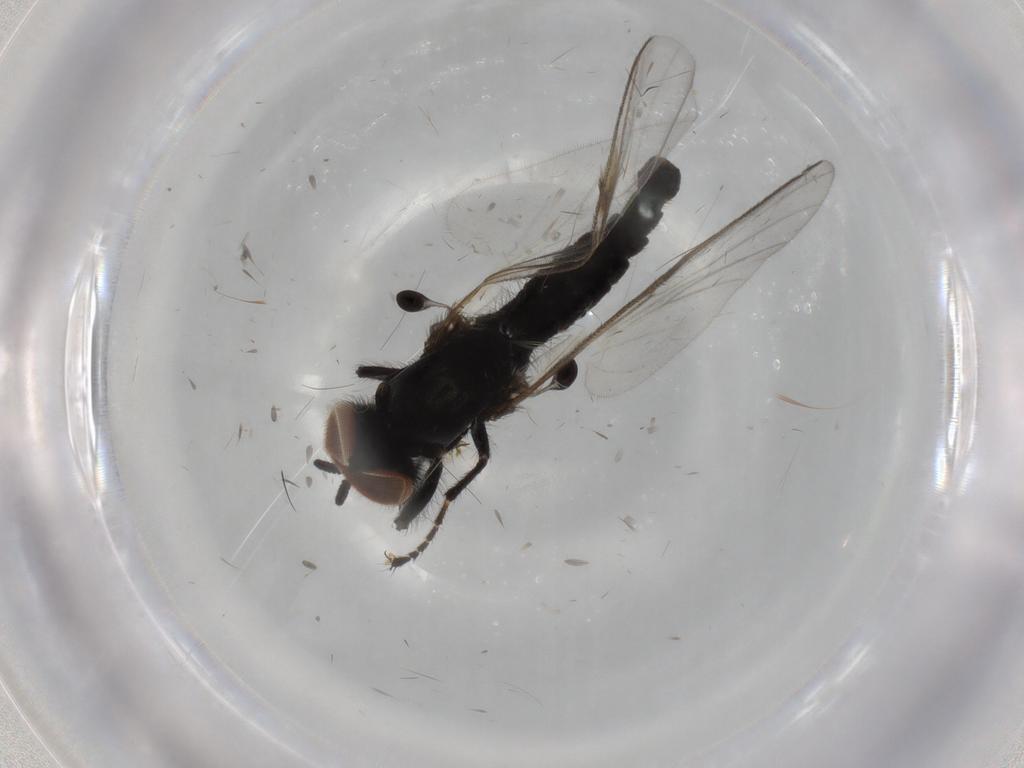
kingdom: Animalia
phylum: Arthropoda
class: Insecta
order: Diptera
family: Bibionidae
